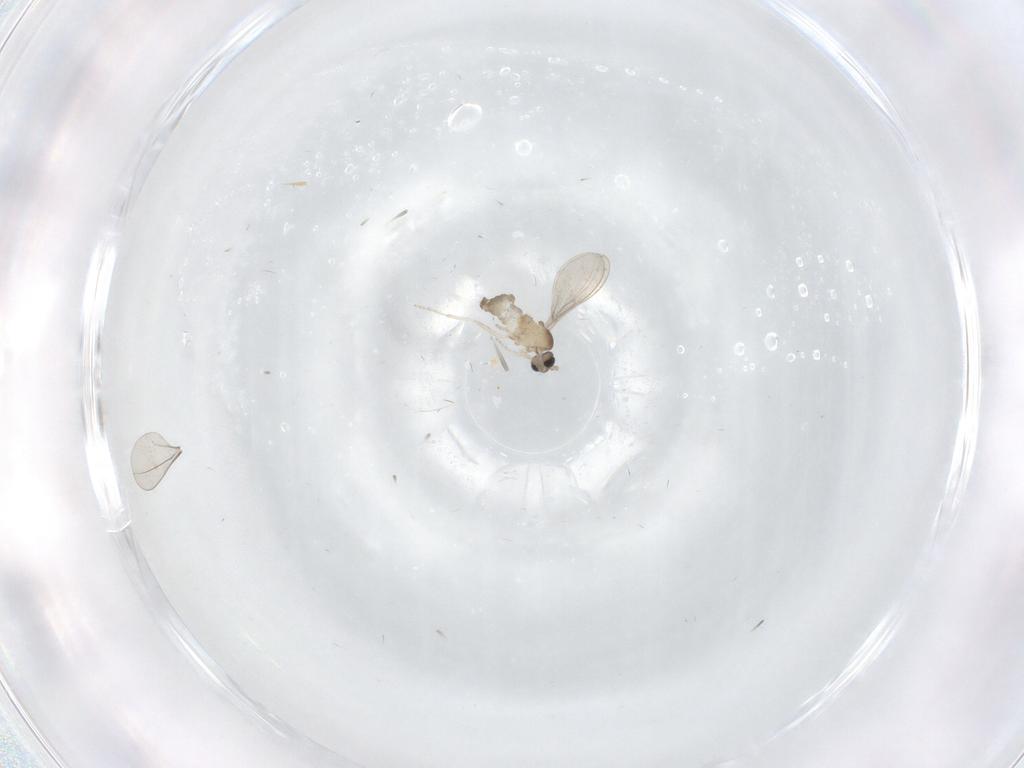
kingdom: Animalia
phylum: Arthropoda
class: Insecta
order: Diptera
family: Cecidomyiidae
